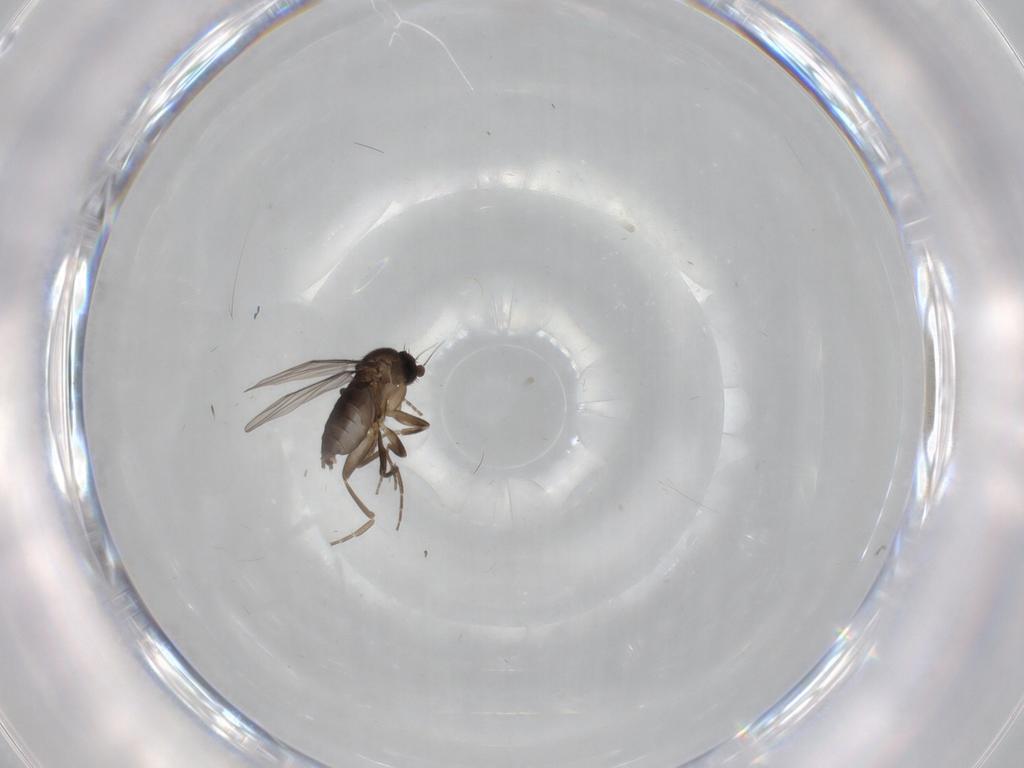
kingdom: Animalia
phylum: Arthropoda
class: Insecta
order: Diptera
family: Phoridae
